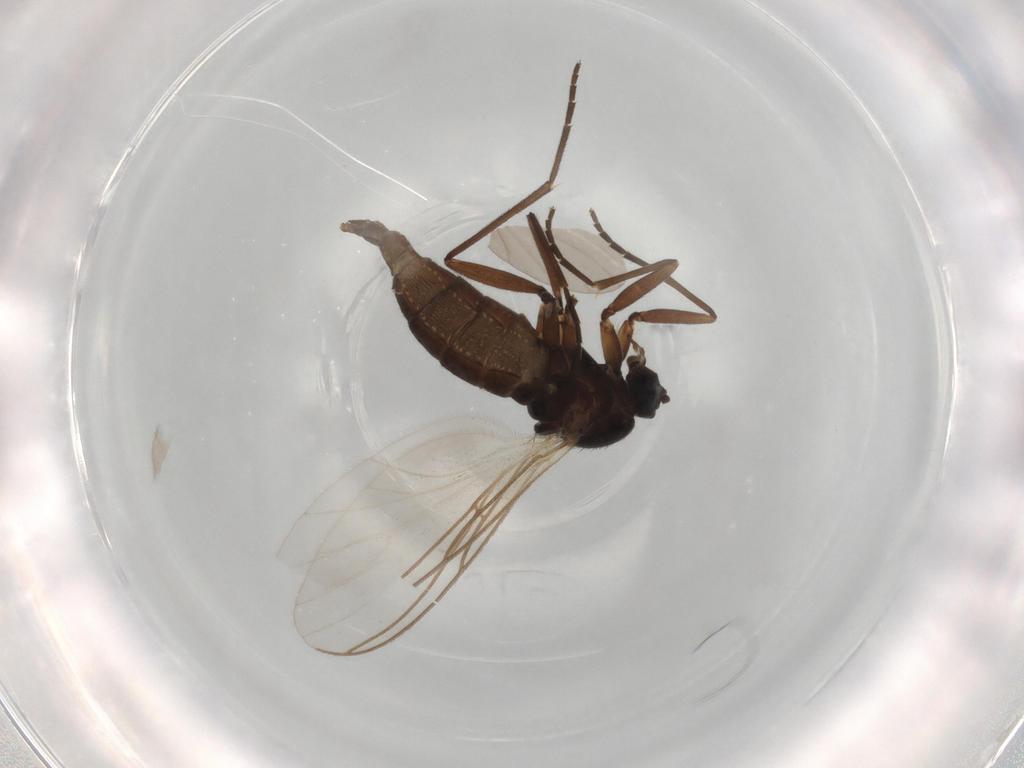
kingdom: Animalia
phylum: Arthropoda
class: Insecta
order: Diptera
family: Sciaridae
